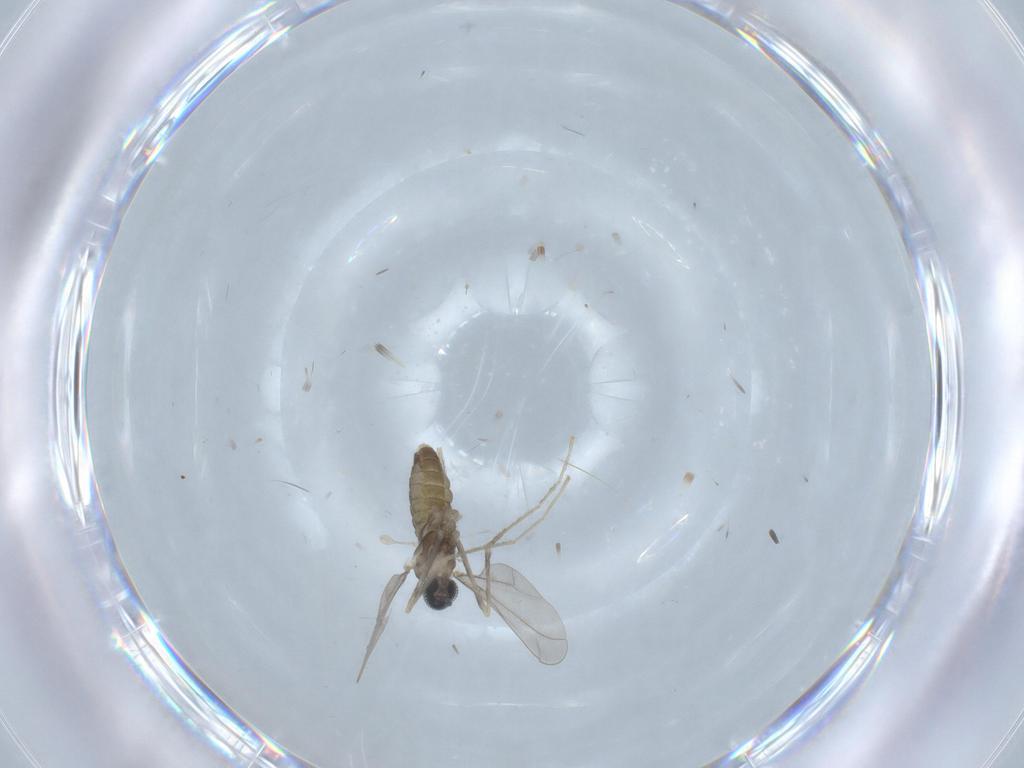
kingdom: Animalia
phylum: Arthropoda
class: Insecta
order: Diptera
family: Cecidomyiidae
